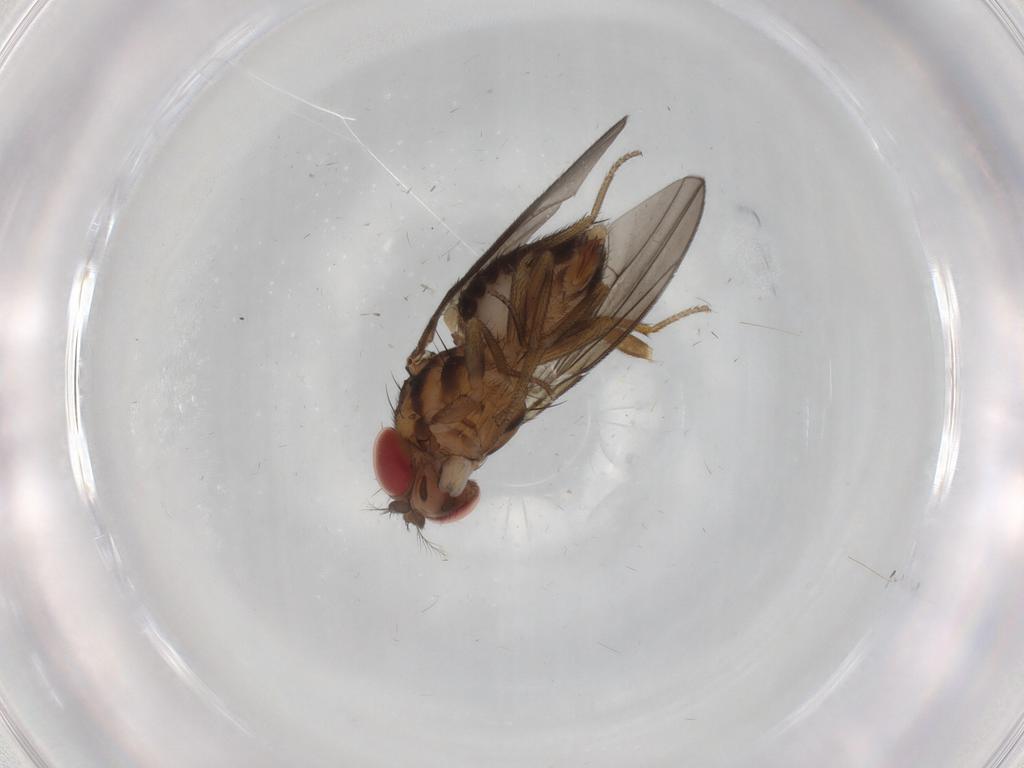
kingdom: Animalia
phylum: Arthropoda
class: Insecta
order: Diptera
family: Drosophilidae
